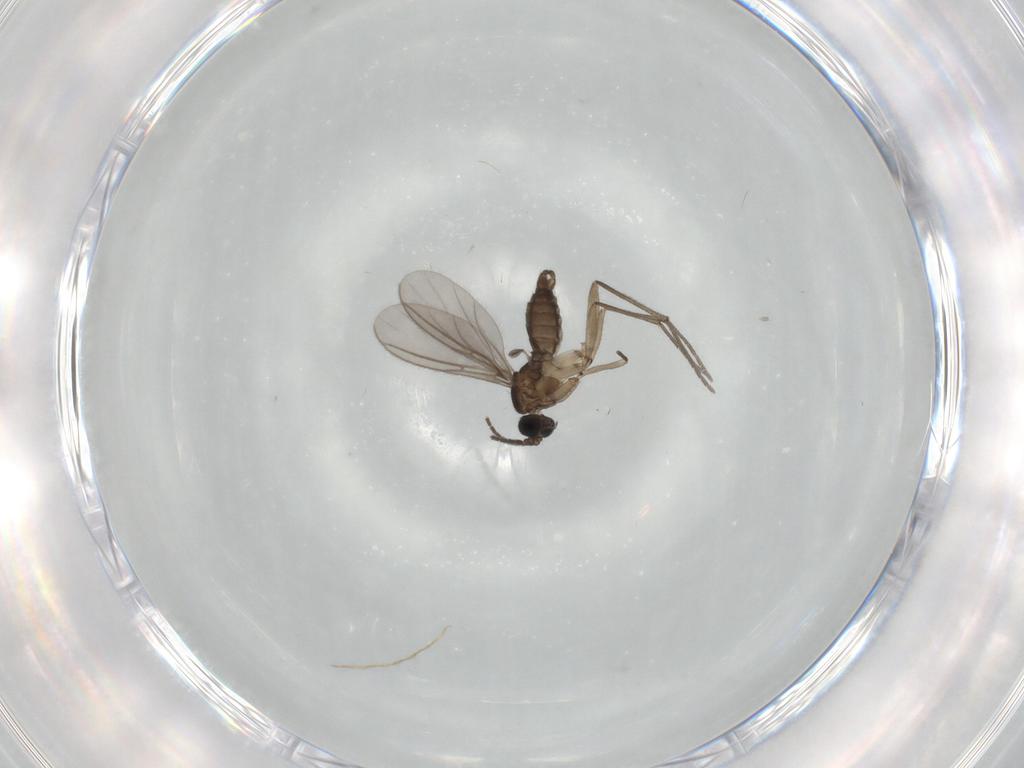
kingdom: Animalia
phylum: Arthropoda
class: Insecta
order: Diptera
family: Sciaridae
